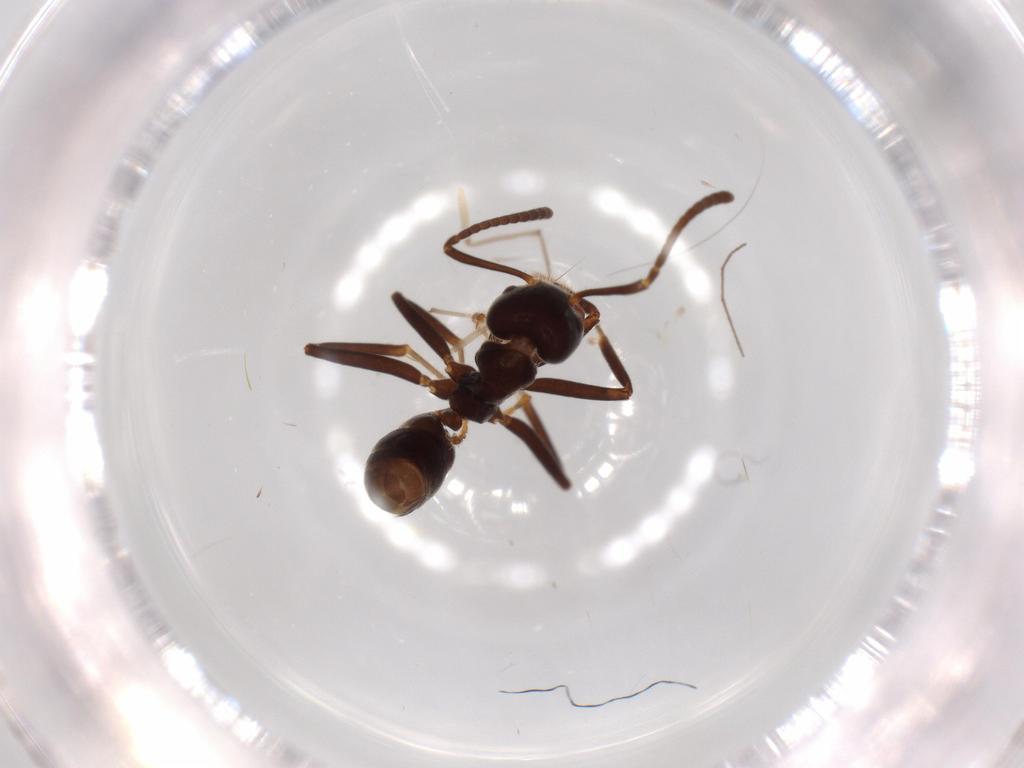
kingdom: Animalia
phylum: Arthropoda
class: Insecta
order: Hymenoptera
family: Formicidae
